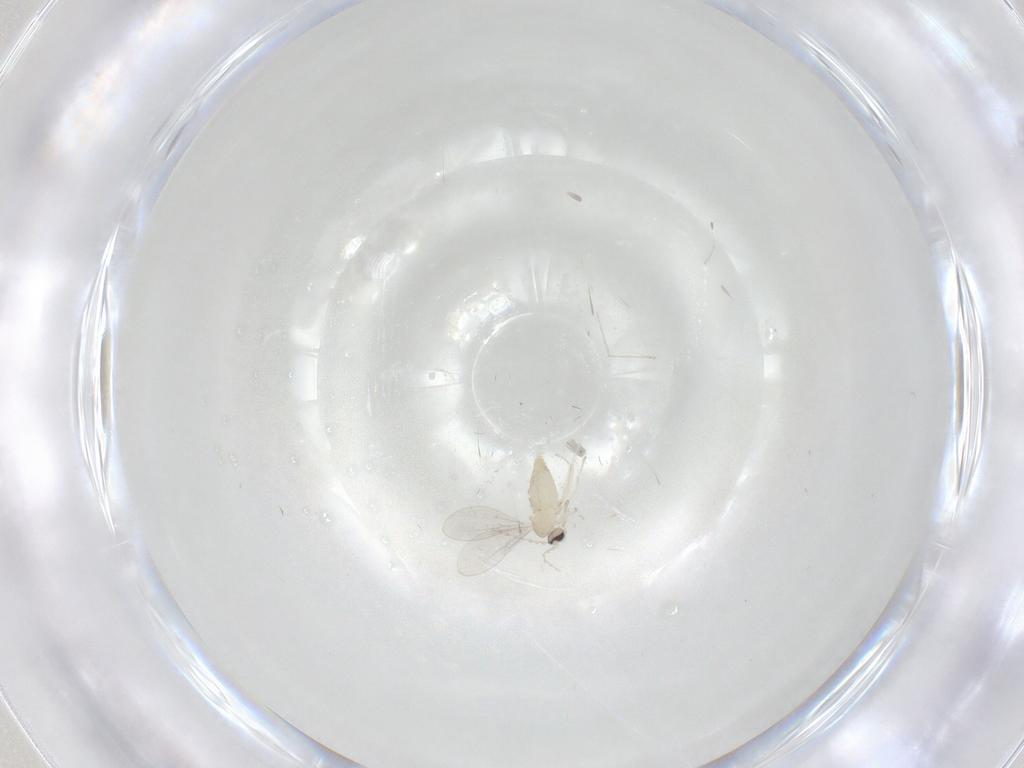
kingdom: Animalia
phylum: Arthropoda
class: Insecta
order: Diptera
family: Cecidomyiidae
